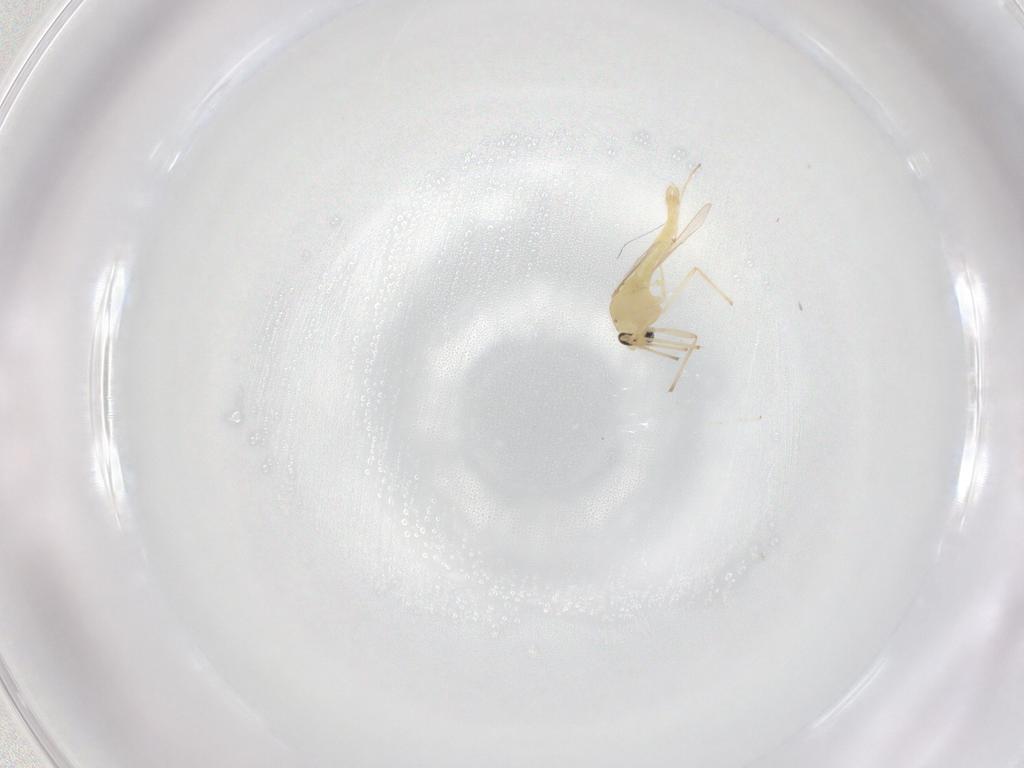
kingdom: Animalia
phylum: Arthropoda
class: Insecta
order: Diptera
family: Chironomidae
